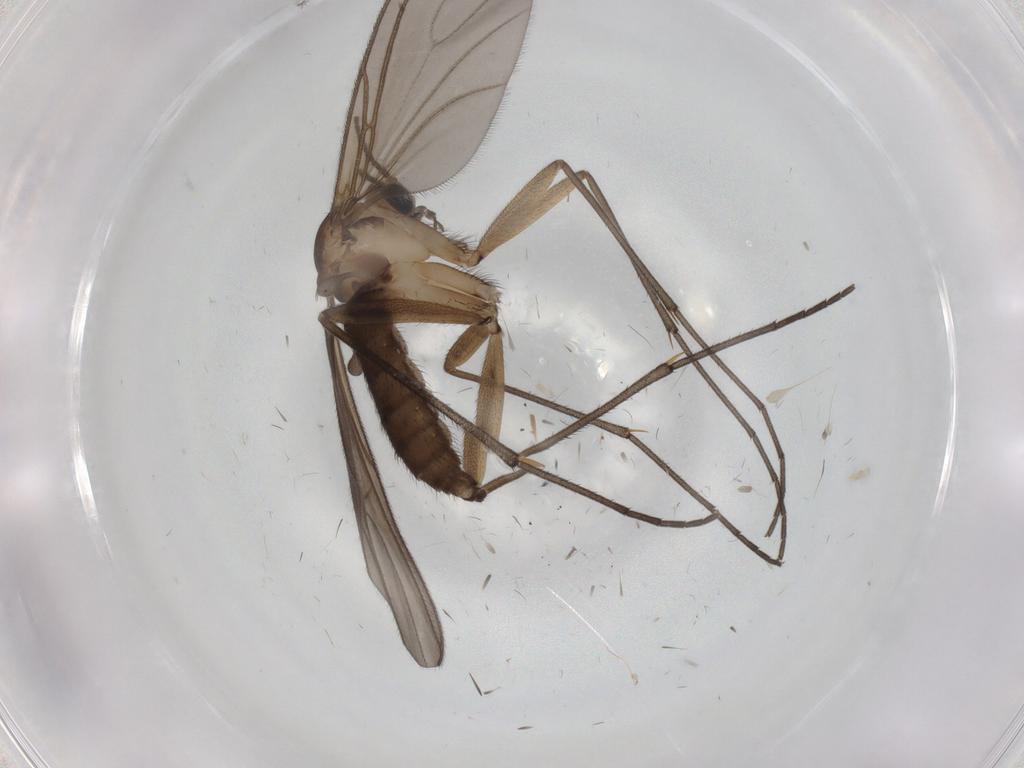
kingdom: Animalia
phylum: Arthropoda
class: Insecta
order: Diptera
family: Sciaridae
